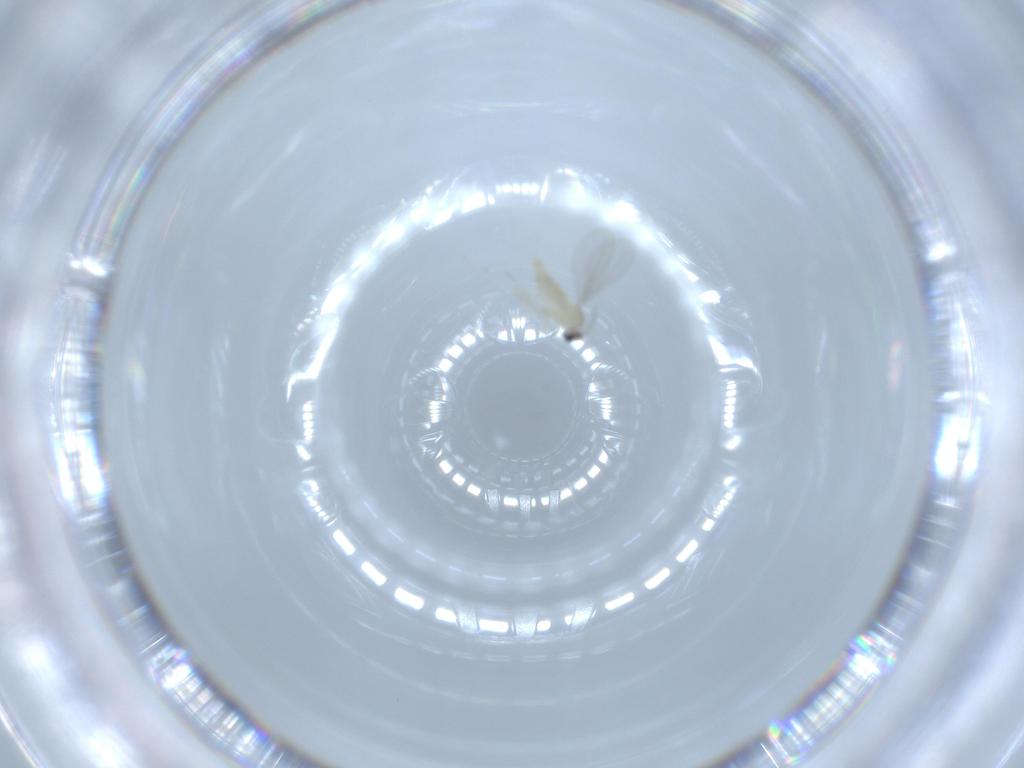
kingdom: Animalia
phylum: Arthropoda
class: Insecta
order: Diptera
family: Cecidomyiidae
